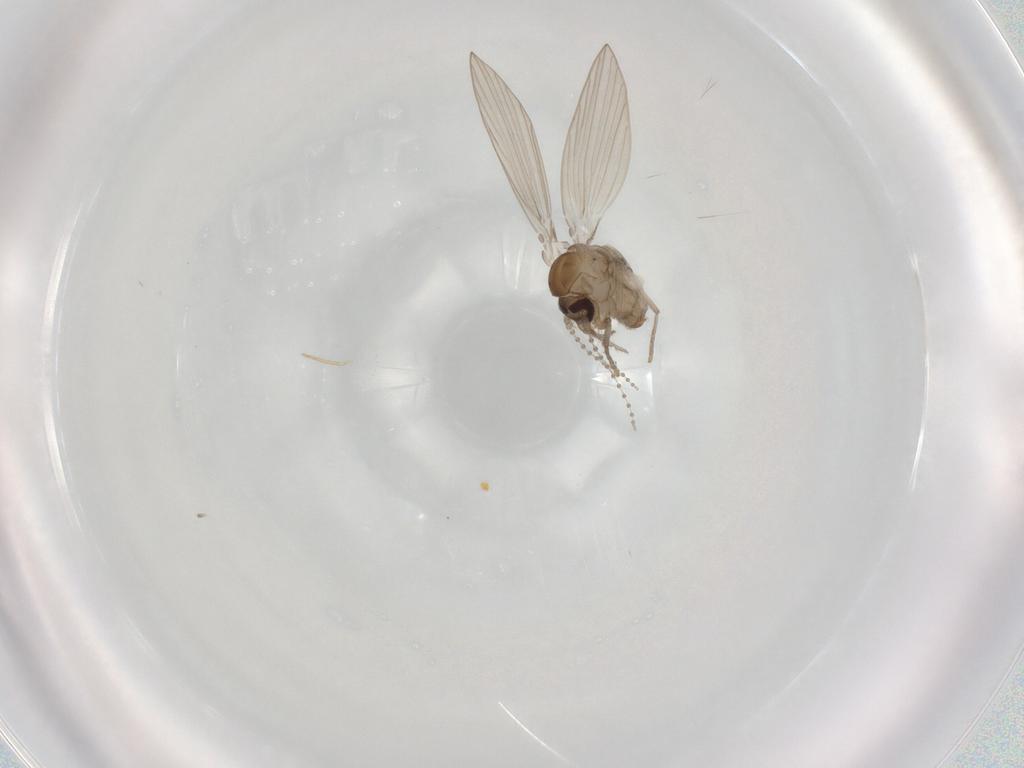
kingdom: Animalia
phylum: Arthropoda
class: Insecta
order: Diptera
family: Psychodidae
